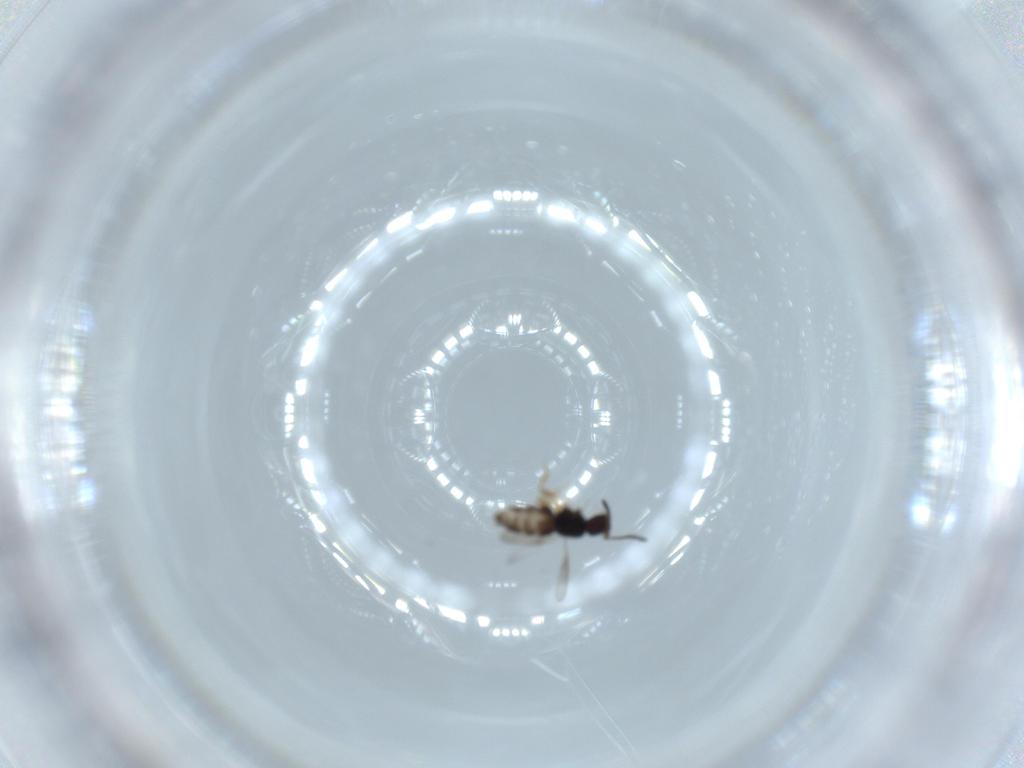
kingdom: Animalia
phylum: Arthropoda
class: Insecta
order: Hymenoptera
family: Ceraphronidae
